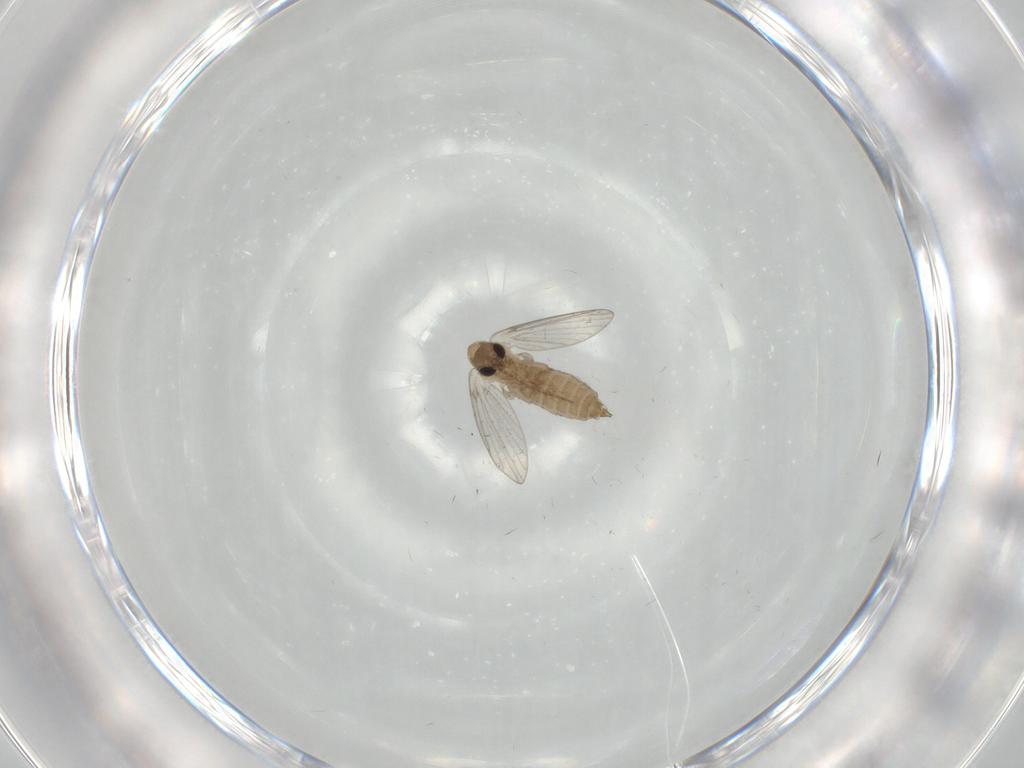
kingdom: Animalia
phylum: Arthropoda
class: Insecta
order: Diptera
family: Psychodidae
